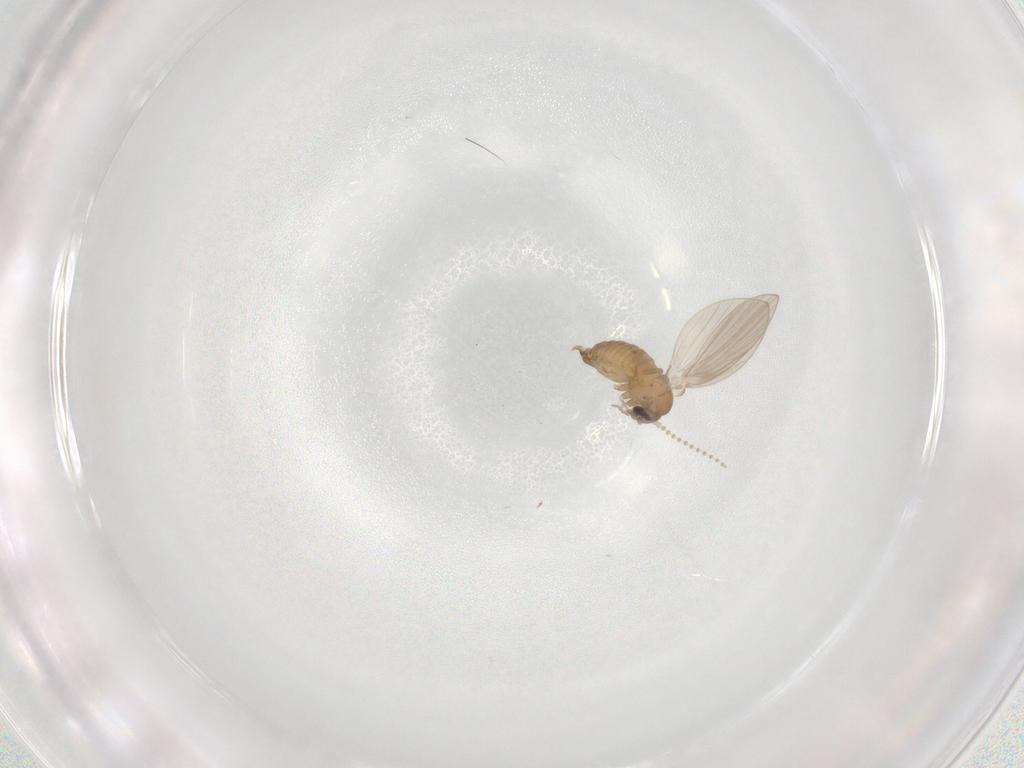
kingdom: Animalia
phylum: Arthropoda
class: Insecta
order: Diptera
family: Psychodidae
